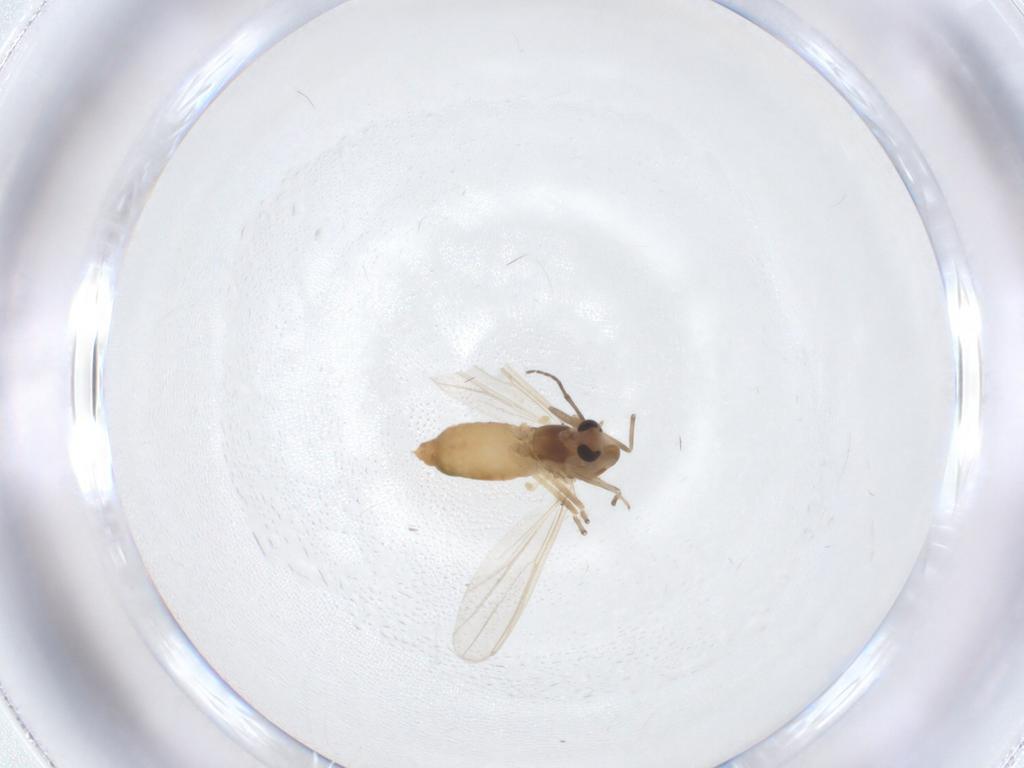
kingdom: Animalia
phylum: Arthropoda
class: Insecta
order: Diptera
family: Chironomidae
